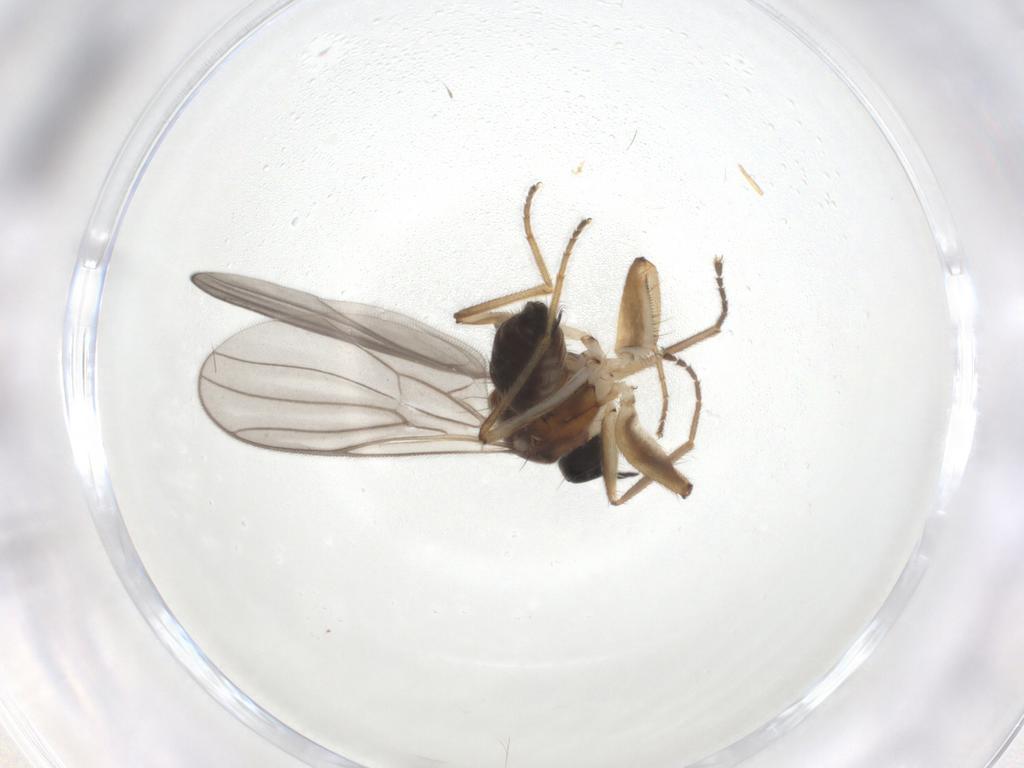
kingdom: Animalia
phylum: Arthropoda
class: Insecta
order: Diptera
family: Hybotidae
